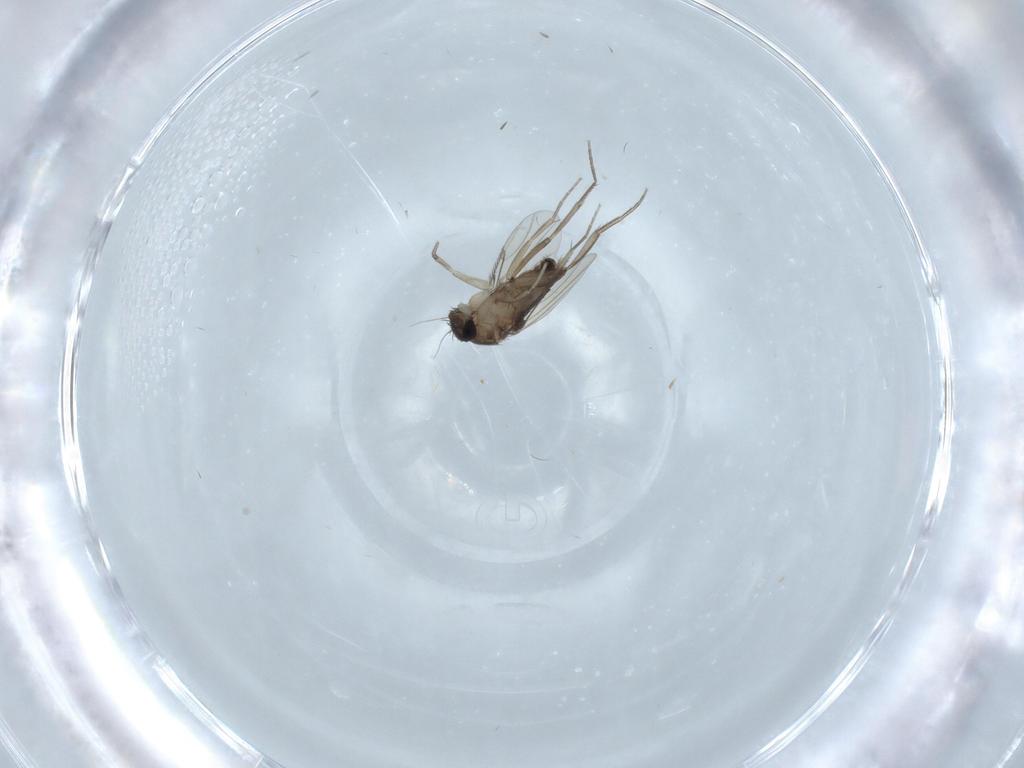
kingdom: Animalia
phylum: Arthropoda
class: Insecta
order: Diptera
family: Phoridae
